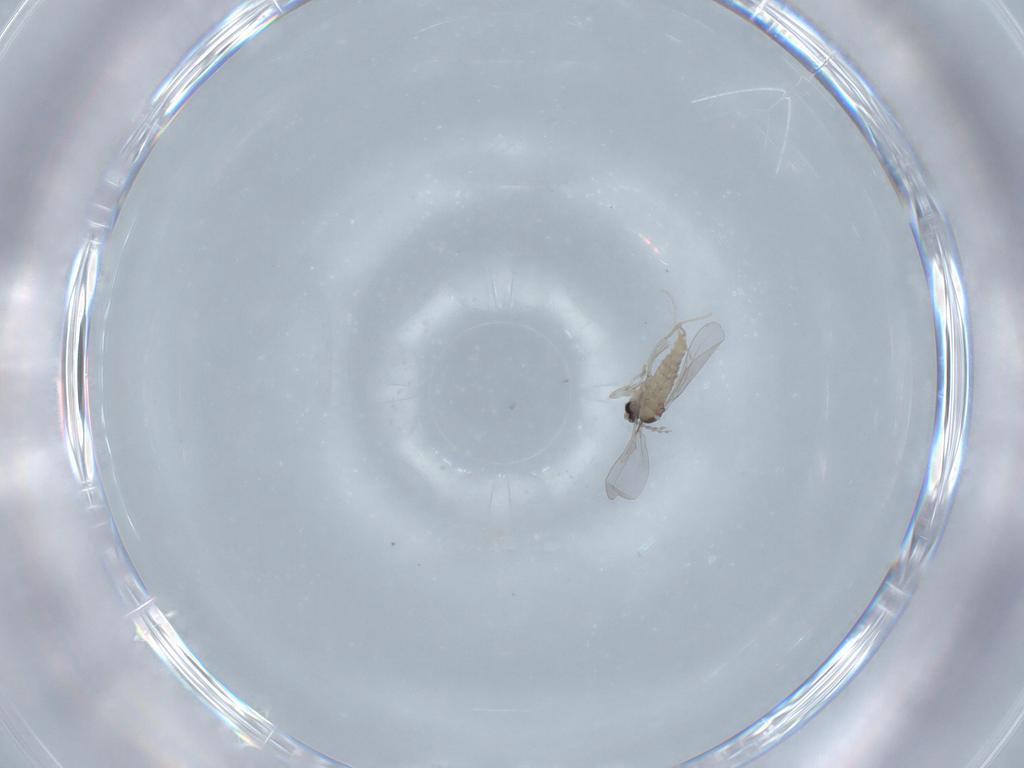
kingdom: Animalia
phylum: Arthropoda
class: Insecta
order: Diptera
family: Cecidomyiidae
